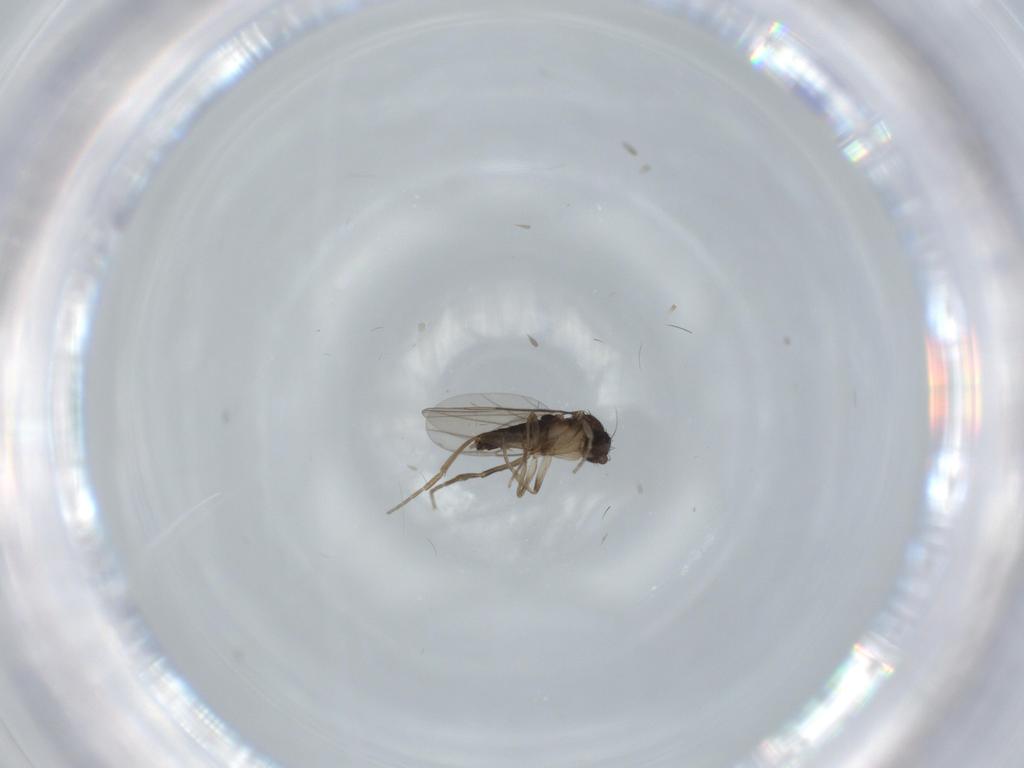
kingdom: Animalia
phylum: Arthropoda
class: Insecta
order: Diptera
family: Phoridae
